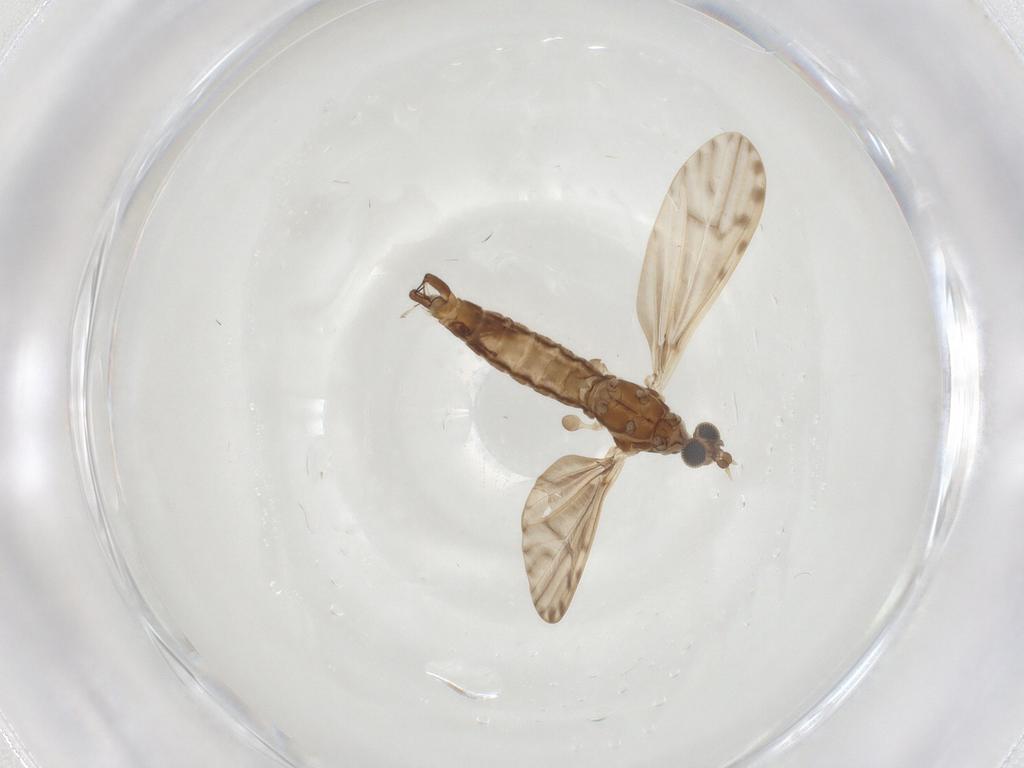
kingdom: Animalia
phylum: Arthropoda
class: Insecta
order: Diptera
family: Limoniidae
